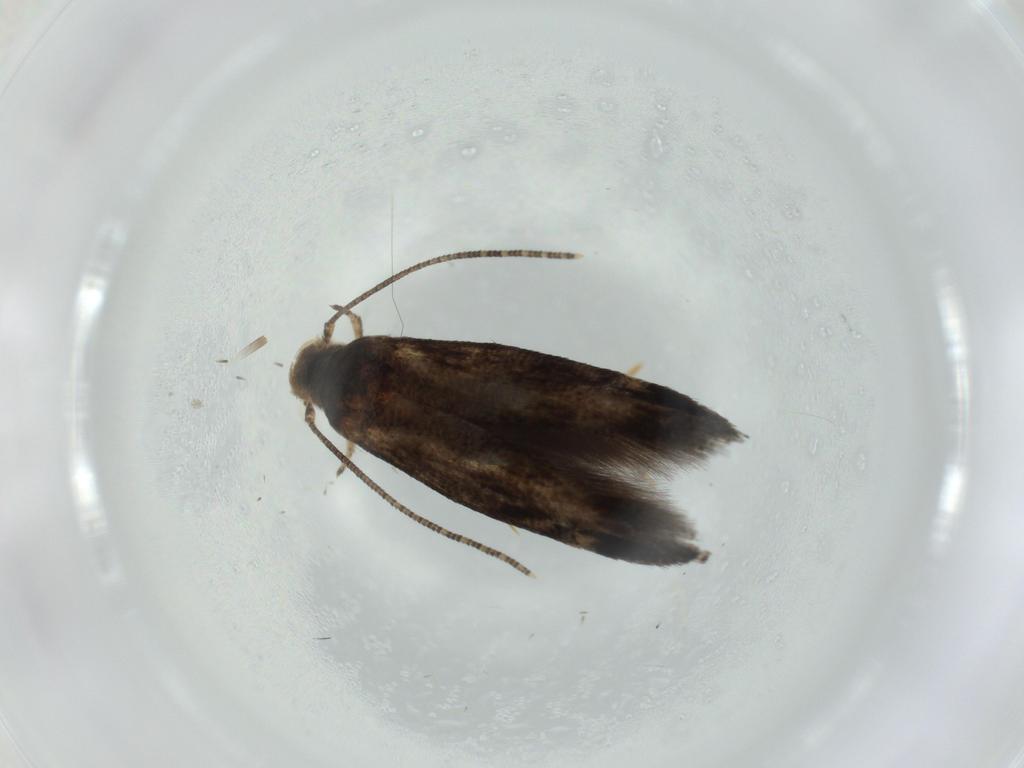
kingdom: Animalia
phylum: Arthropoda
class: Insecta
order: Lepidoptera
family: Momphidae
